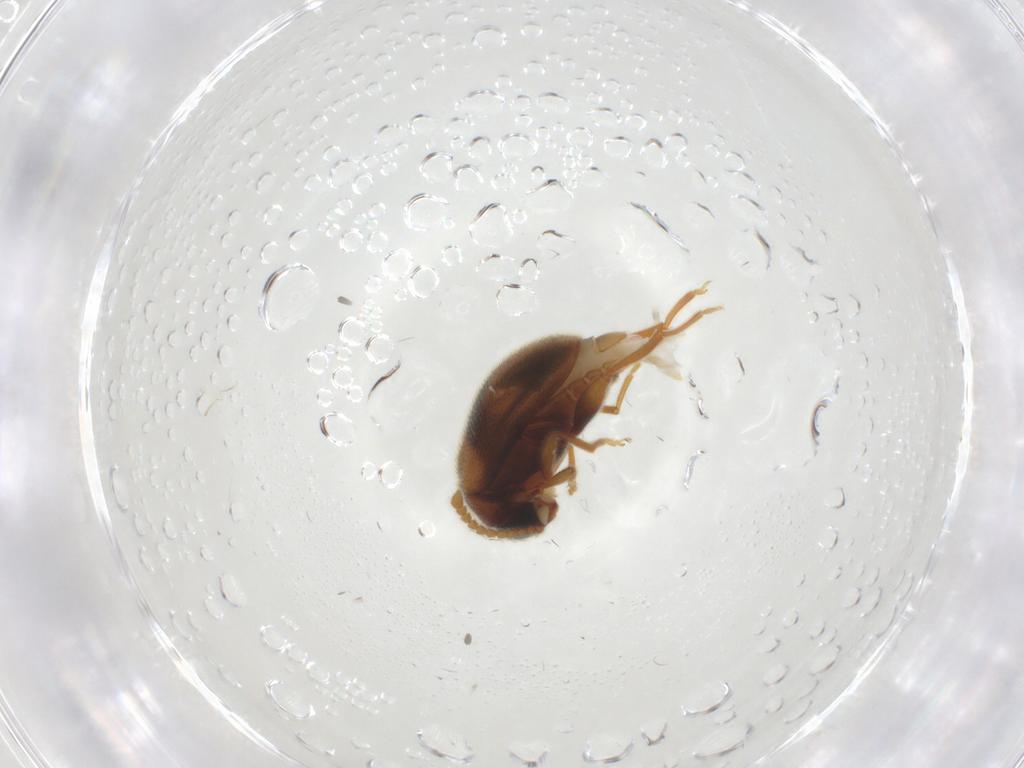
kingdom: Animalia
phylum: Arthropoda
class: Insecta
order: Coleoptera
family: Aderidae
